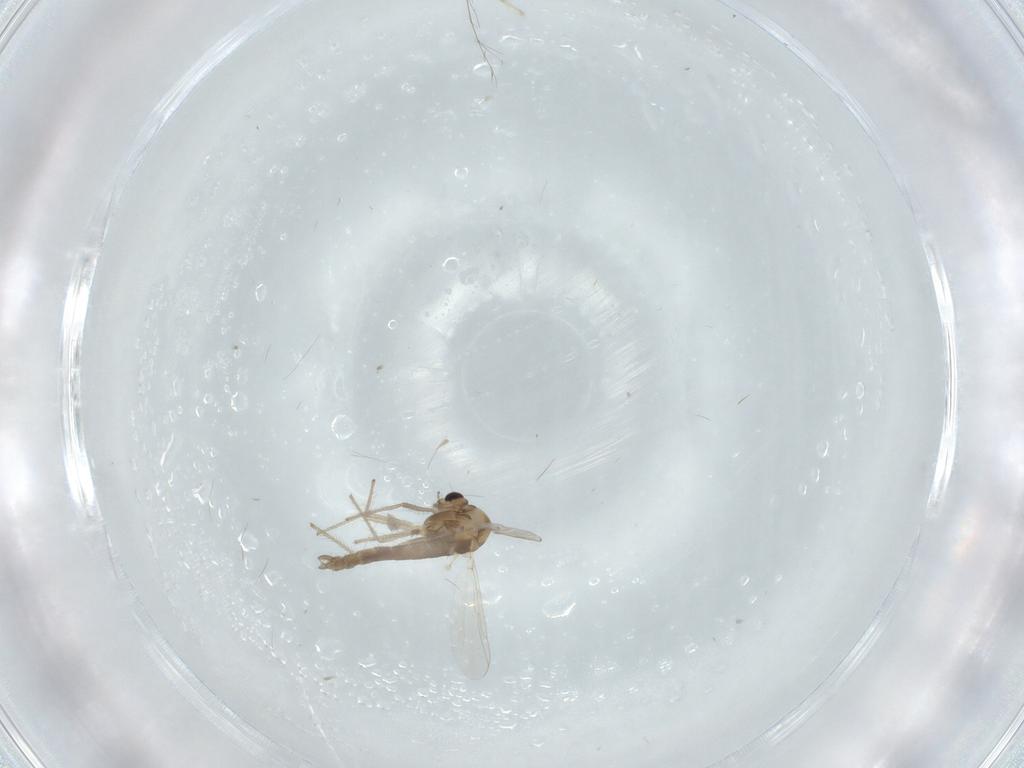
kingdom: Animalia
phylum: Arthropoda
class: Insecta
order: Diptera
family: Chironomidae
